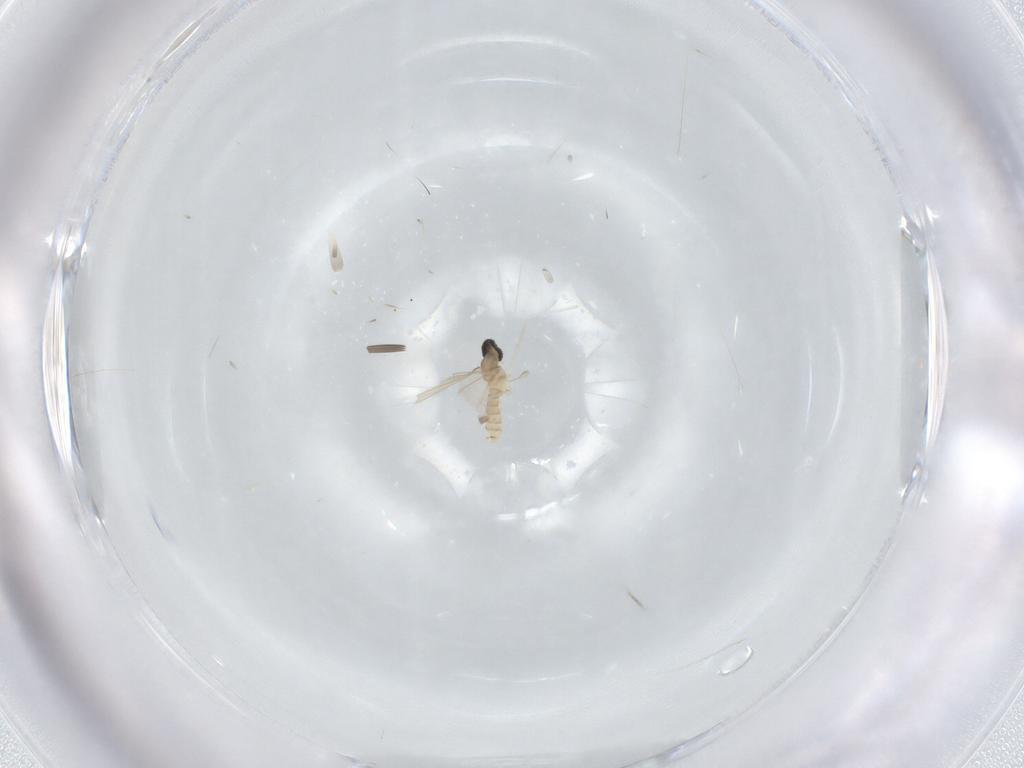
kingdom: Animalia
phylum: Arthropoda
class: Insecta
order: Diptera
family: Cecidomyiidae
